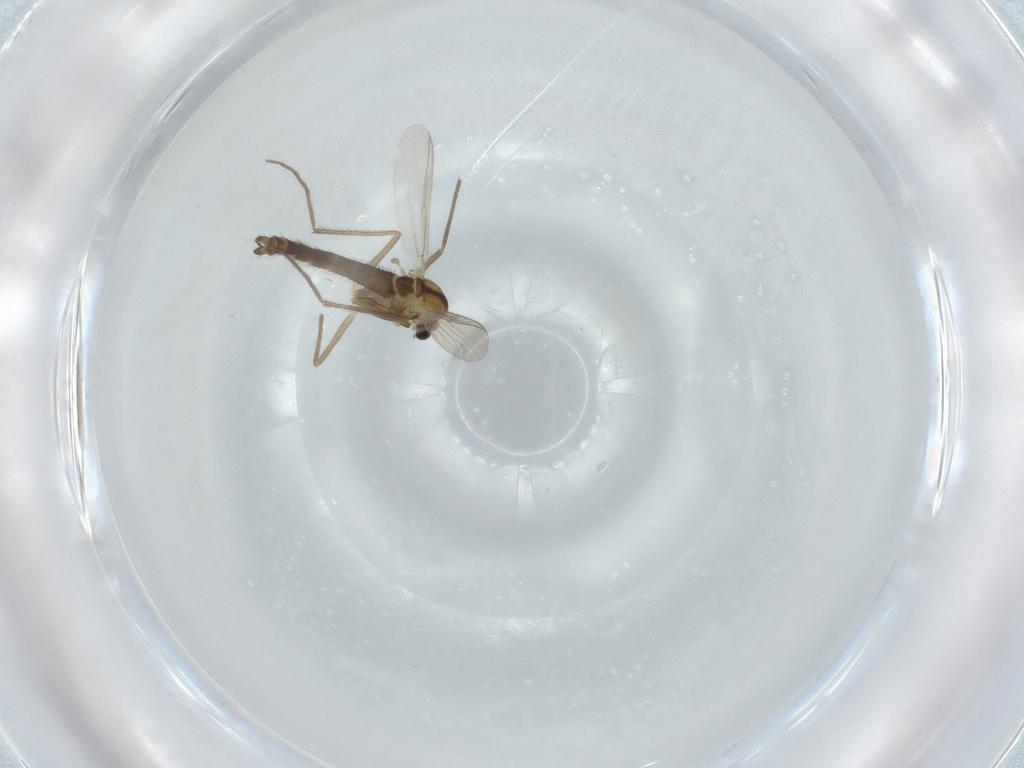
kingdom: Animalia
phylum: Arthropoda
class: Insecta
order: Diptera
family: Chironomidae
